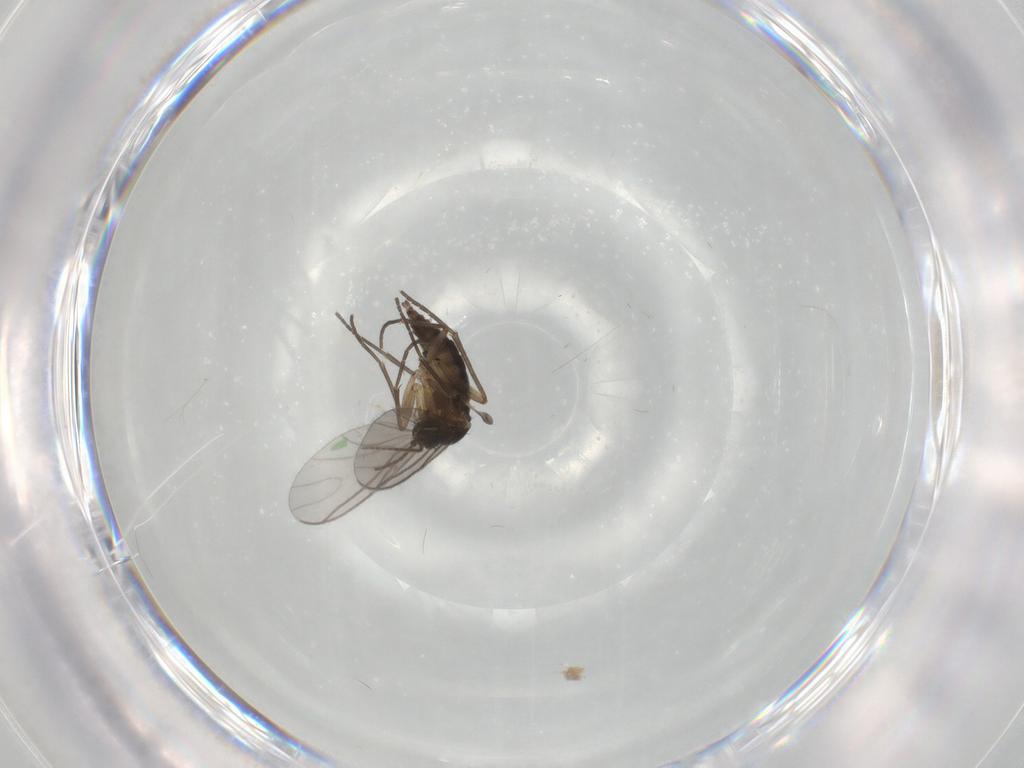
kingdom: Animalia
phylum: Arthropoda
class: Insecta
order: Diptera
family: Sciaridae
